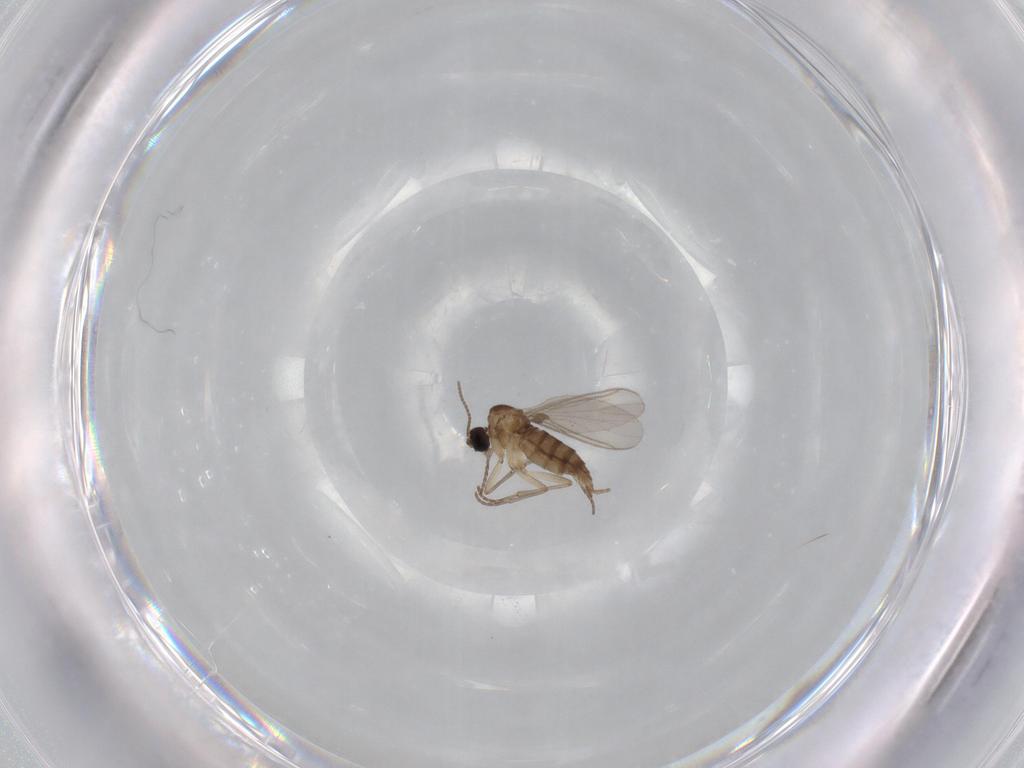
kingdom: Animalia
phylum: Arthropoda
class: Insecta
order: Diptera
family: Sciaridae
